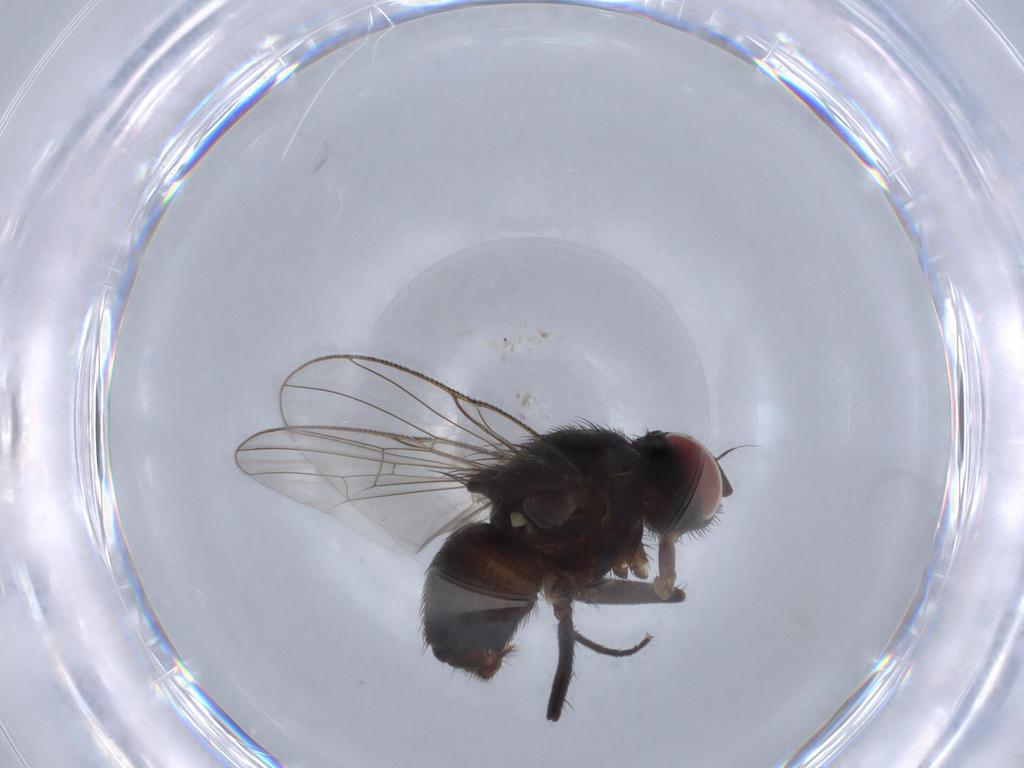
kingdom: Animalia
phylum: Arthropoda
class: Insecta
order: Diptera
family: Muscidae
